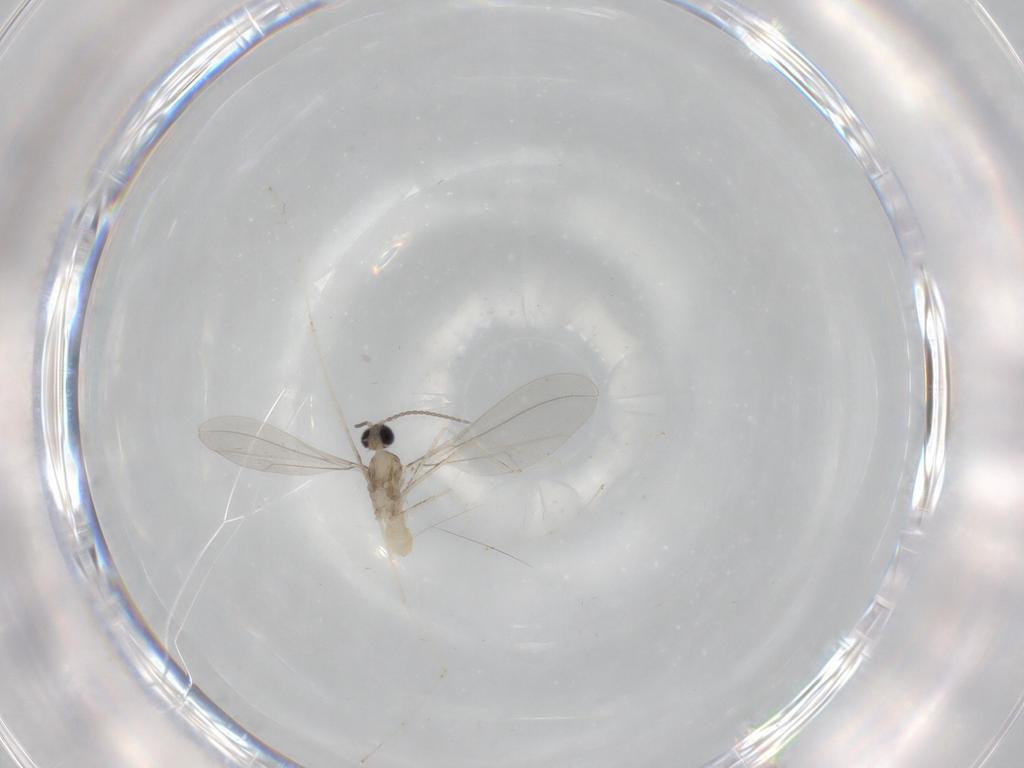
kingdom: Animalia
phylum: Arthropoda
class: Insecta
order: Diptera
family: Cecidomyiidae
